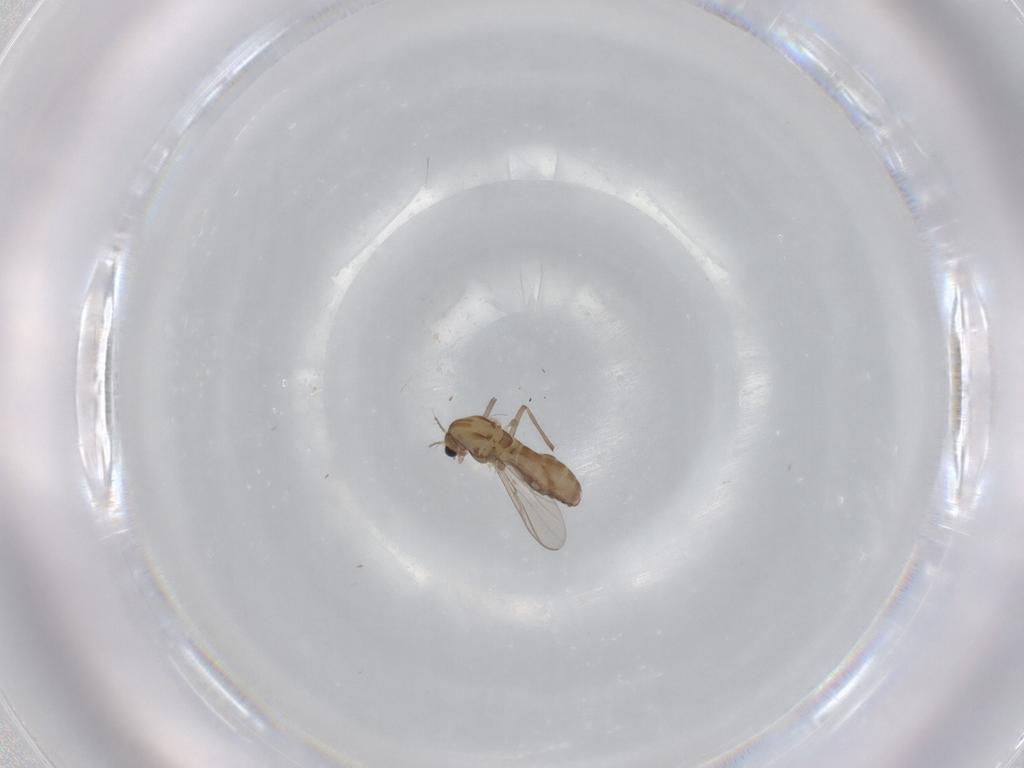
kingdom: Animalia
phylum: Arthropoda
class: Insecta
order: Diptera
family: Chironomidae
